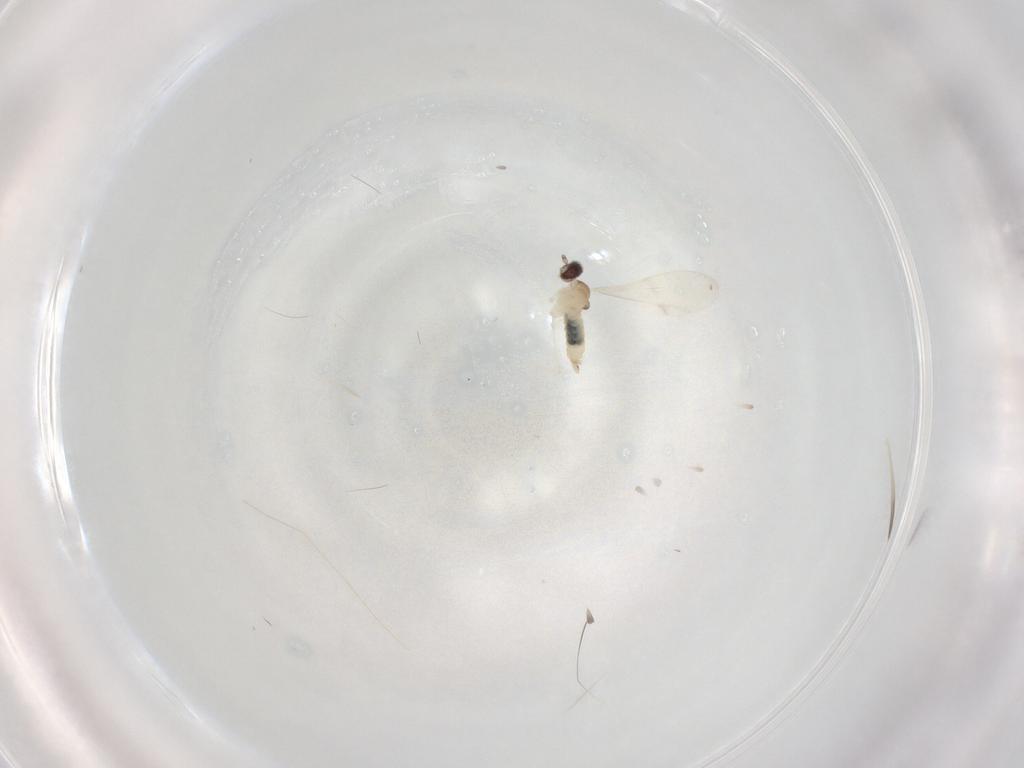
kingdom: Animalia
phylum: Arthropoda
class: Insecta
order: Diptera
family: Cecidomyiidae
